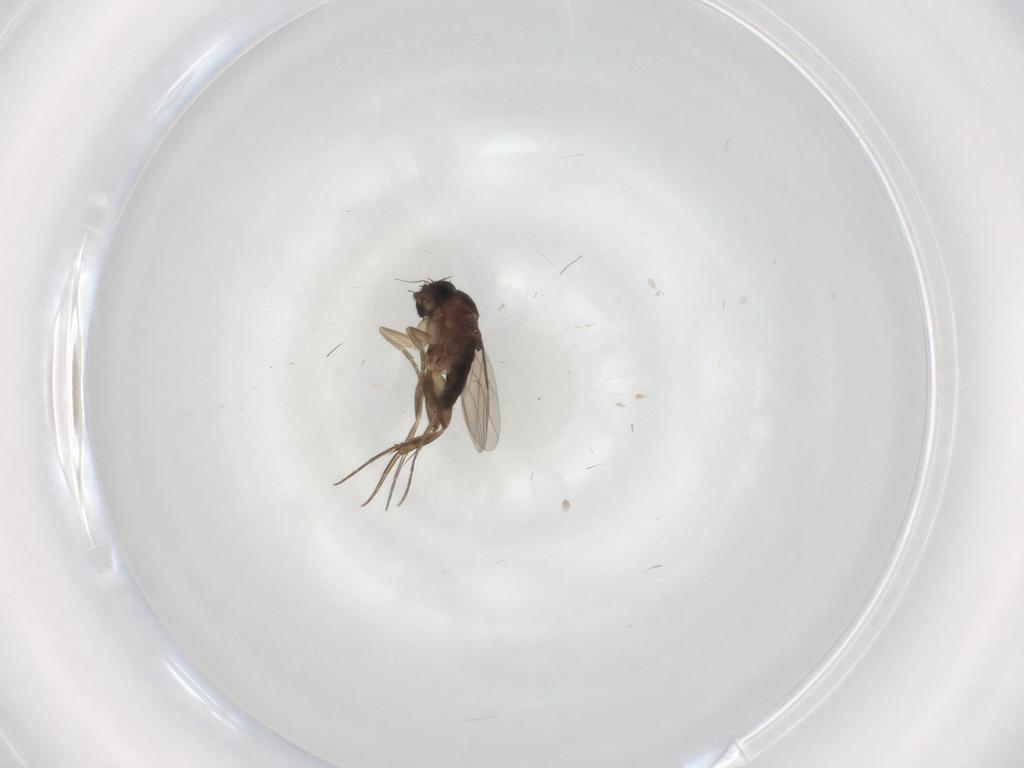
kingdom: Animalia
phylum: Arthropoda
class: Insecta
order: Diptera
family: Phoridae
